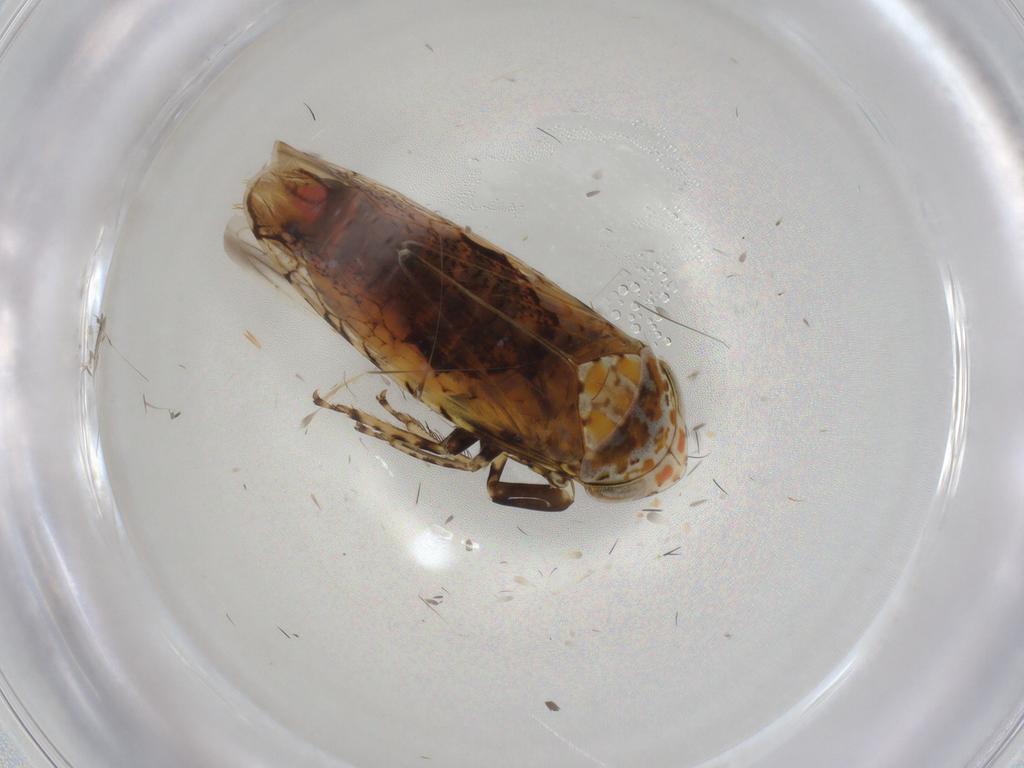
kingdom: Animalia
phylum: Arthropoda
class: Insecta
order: Hemiptera
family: Cicadellidae
